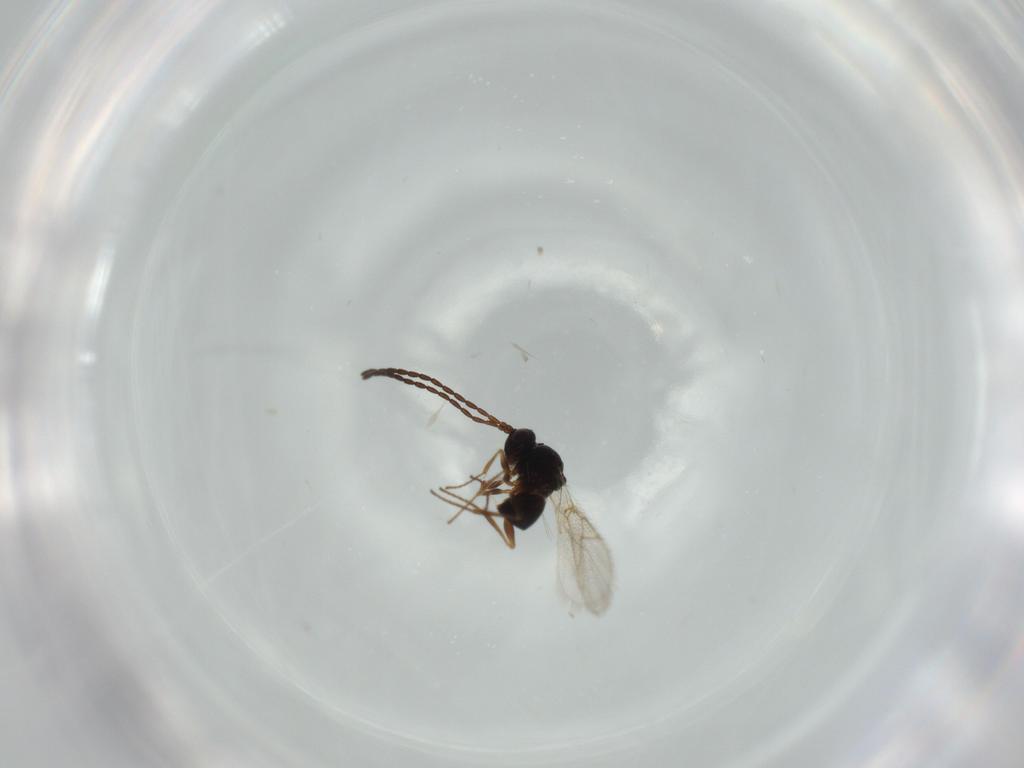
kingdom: Animalia
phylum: Arthropoda
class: Insecta
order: Hymenoptera
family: Figitidae
